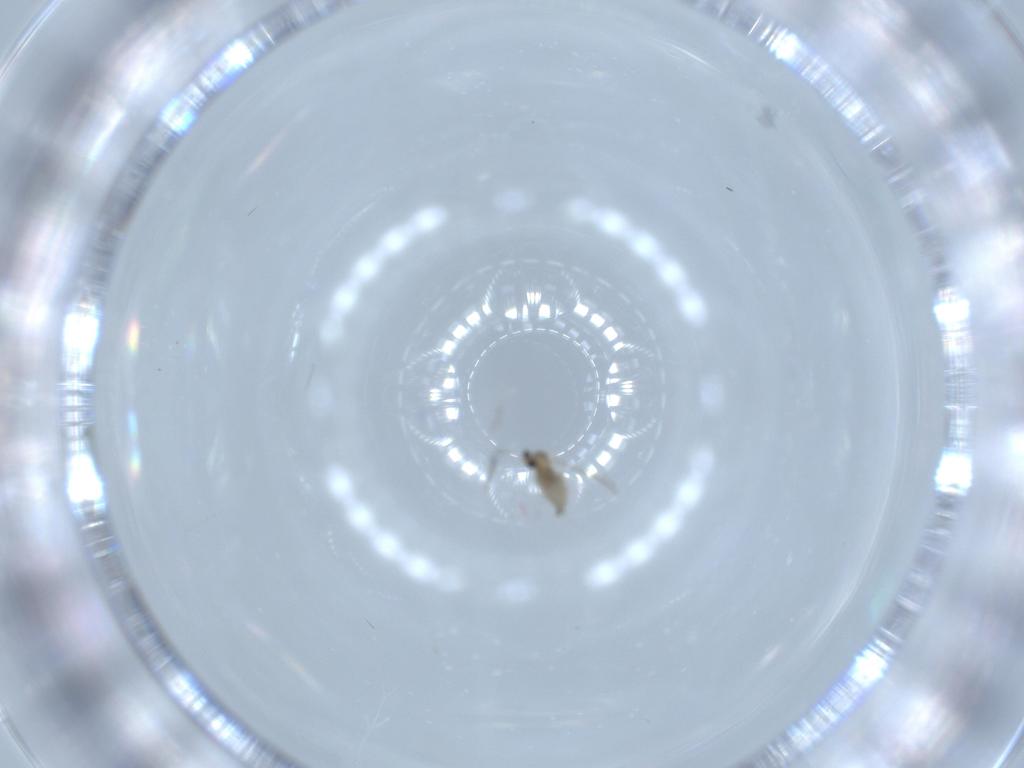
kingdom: Animalia
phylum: Arthropoda
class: Insecta
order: Diptera
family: Cecidomyiidae
